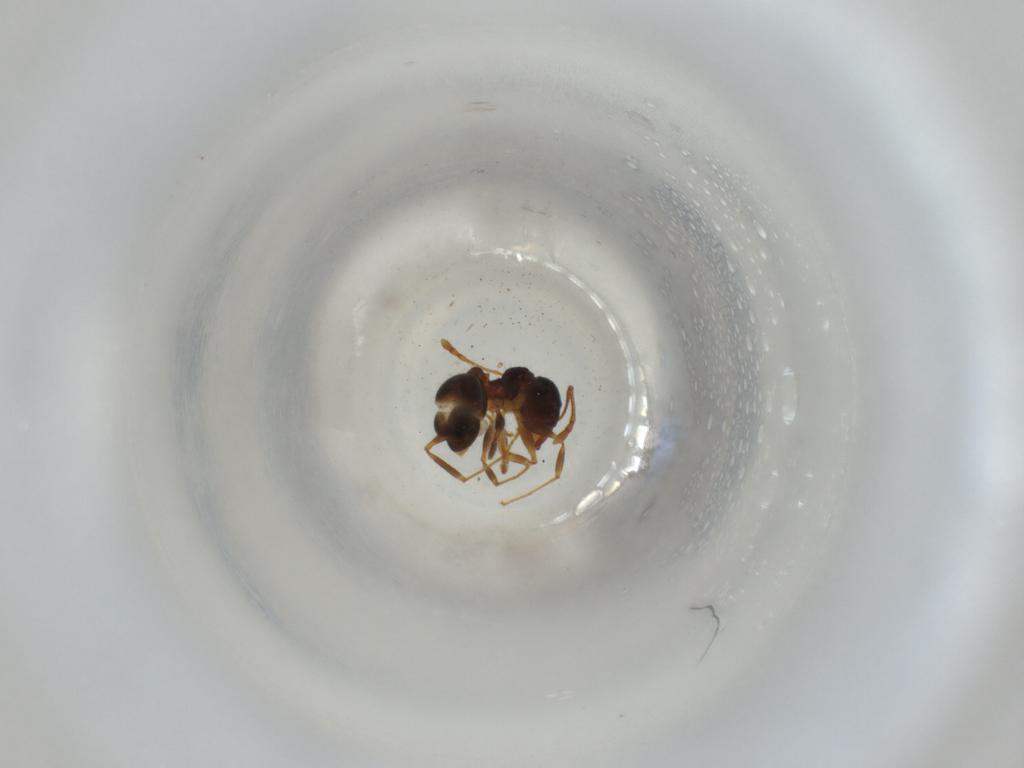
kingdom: Animalia
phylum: Arthropoda
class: Insecta
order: Hymenoptera
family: Formicidae
